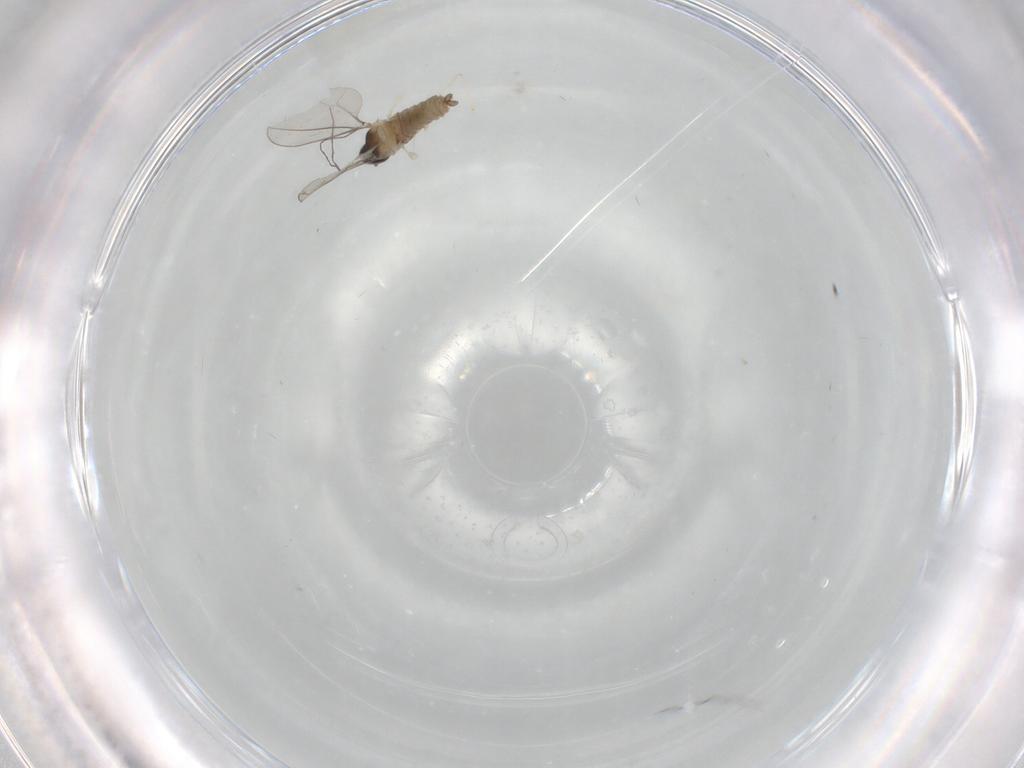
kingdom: Animalia
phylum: Arthropoda
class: Insecta
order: Diptera
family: Cecidomyiidae
